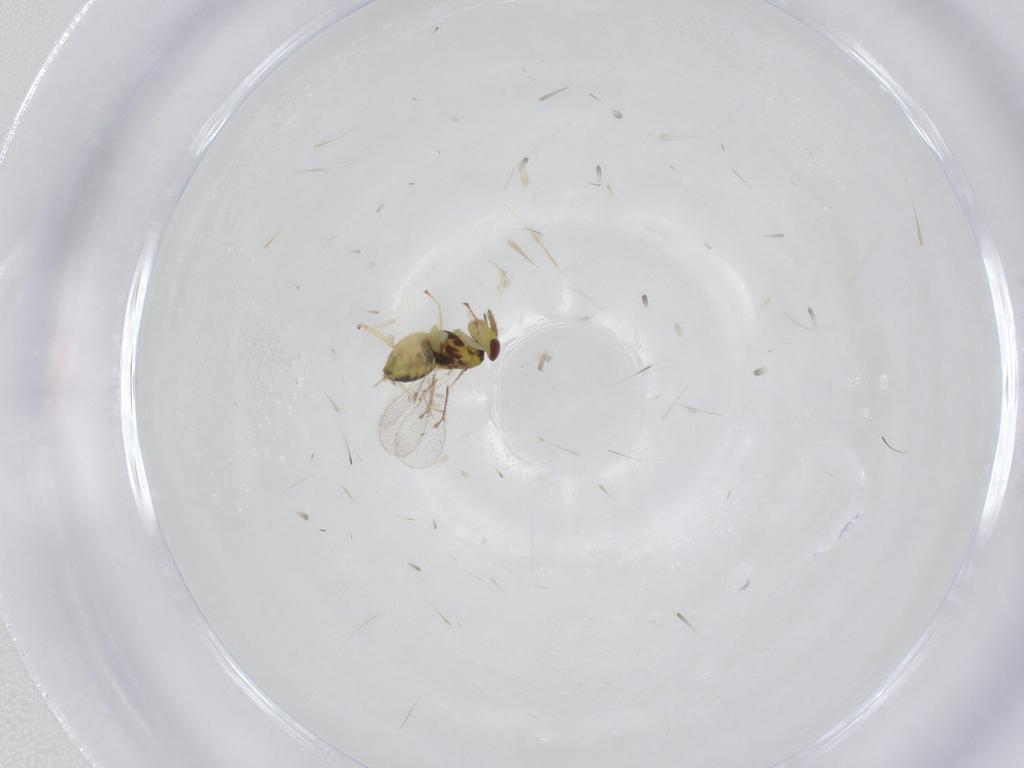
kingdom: Animalia
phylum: Arthropoda
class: Insecta
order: Hymenoptera
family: Eulophidae
